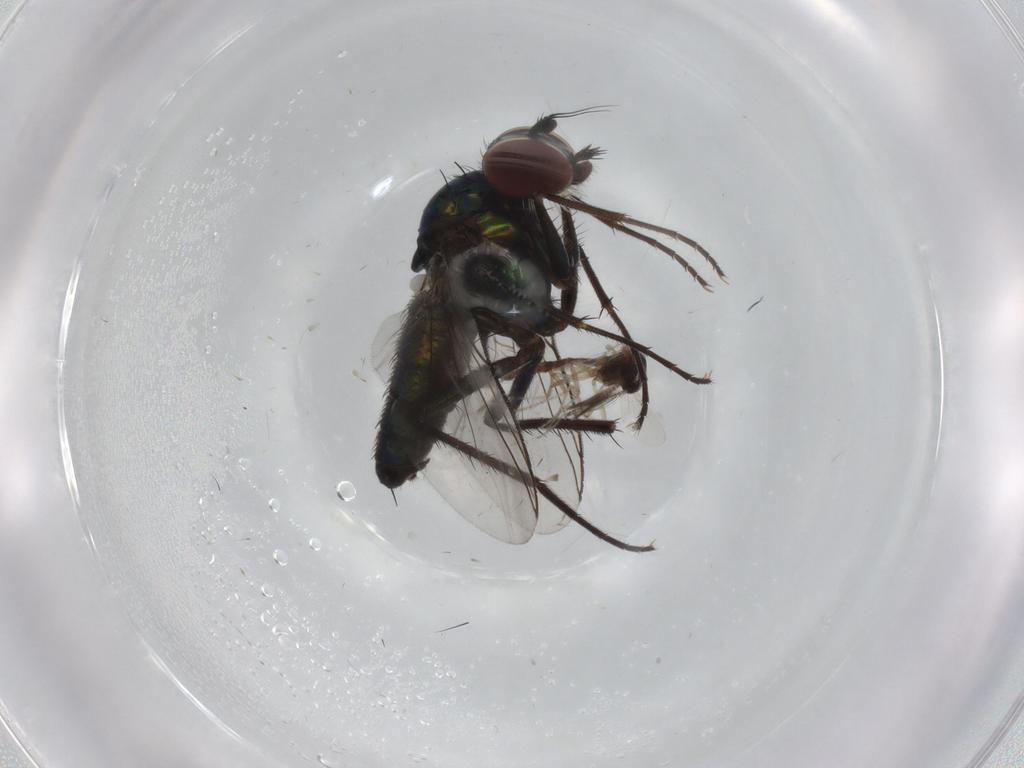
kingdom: Animalia
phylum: Arthropoda
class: Insecta
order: Diptera
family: Dolichopodidae
